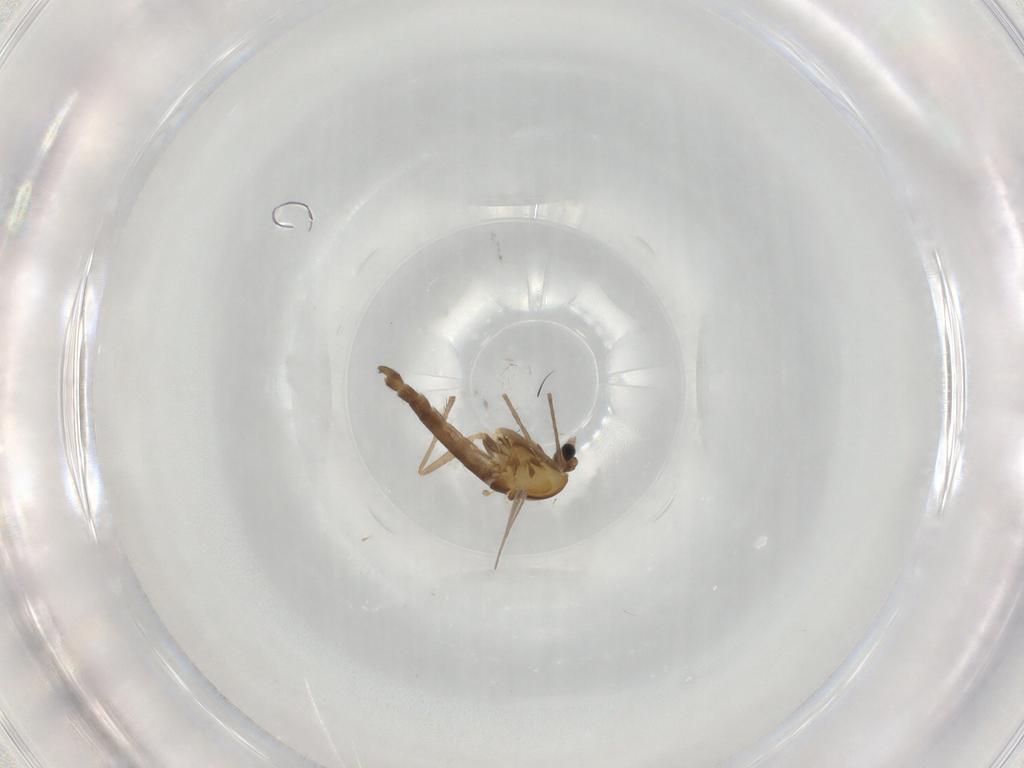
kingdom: Animalia
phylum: Arthropoda
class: Insecta
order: Diptera
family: Chironomidae
